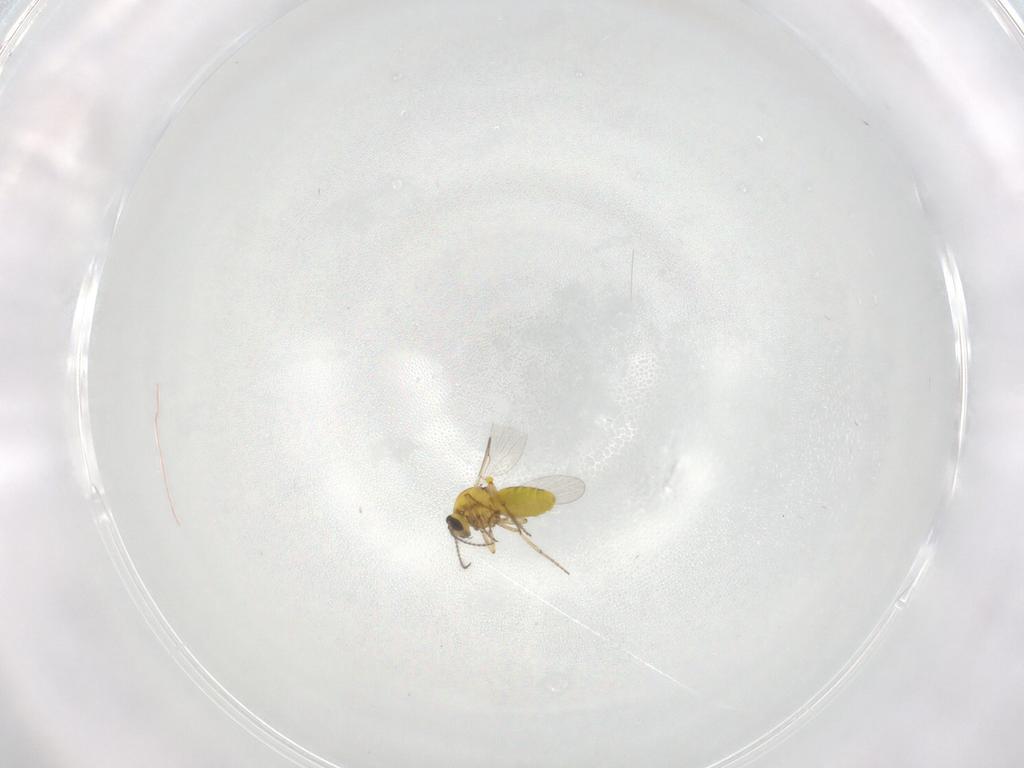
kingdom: Animalia
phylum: Arthropoda
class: Insecta
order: Diptera
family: Ceratopogonidae
